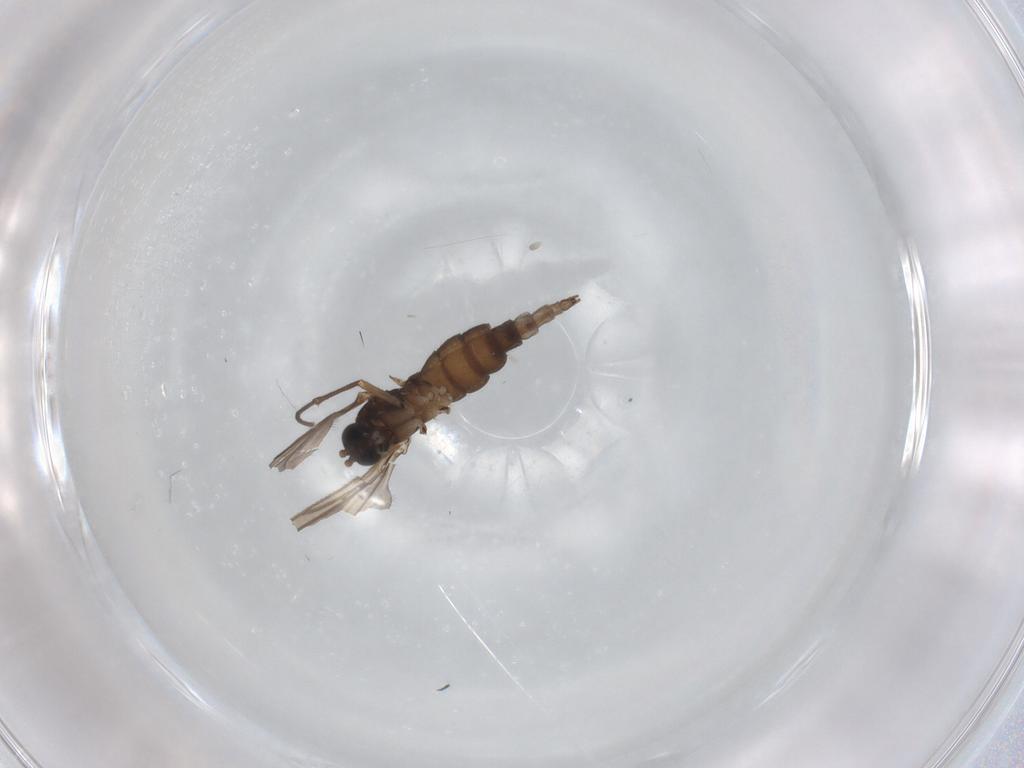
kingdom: Animalia
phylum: Arthropoda
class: Insecta
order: Diptera
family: Sciaridae
